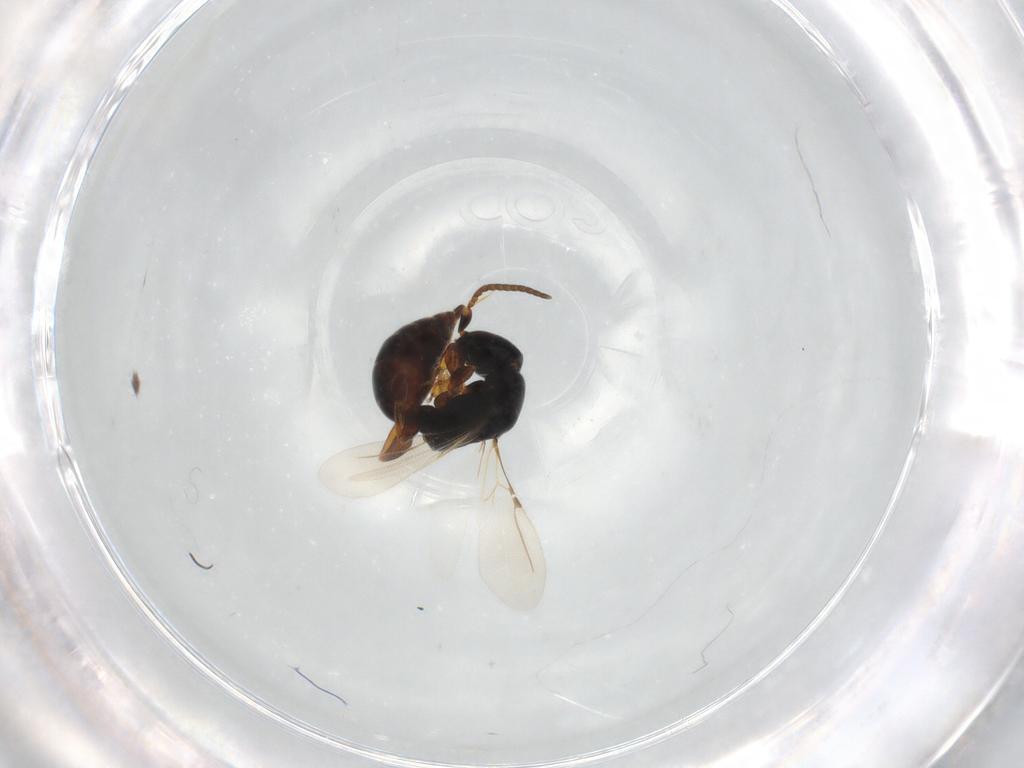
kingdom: Animalia
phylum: Arthropoda
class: Insecta
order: Hymenoptera
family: Bethylidae
